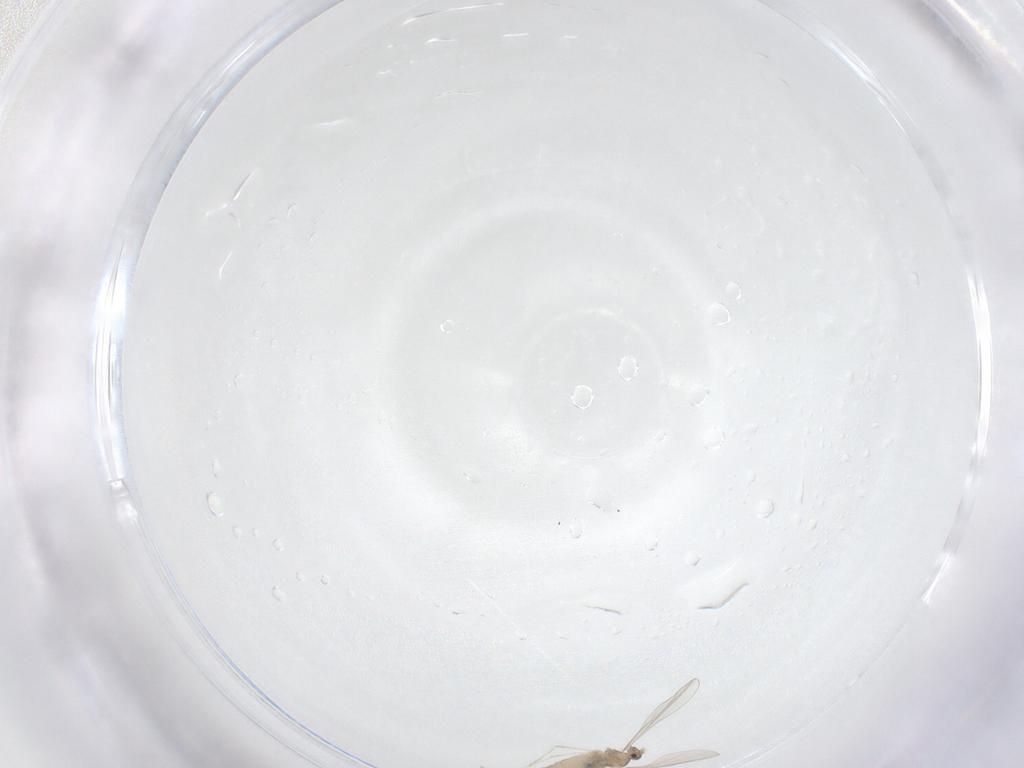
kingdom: Animalia
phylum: Arthropoda
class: Insecta
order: Diptera
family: Cecidomyiidae
